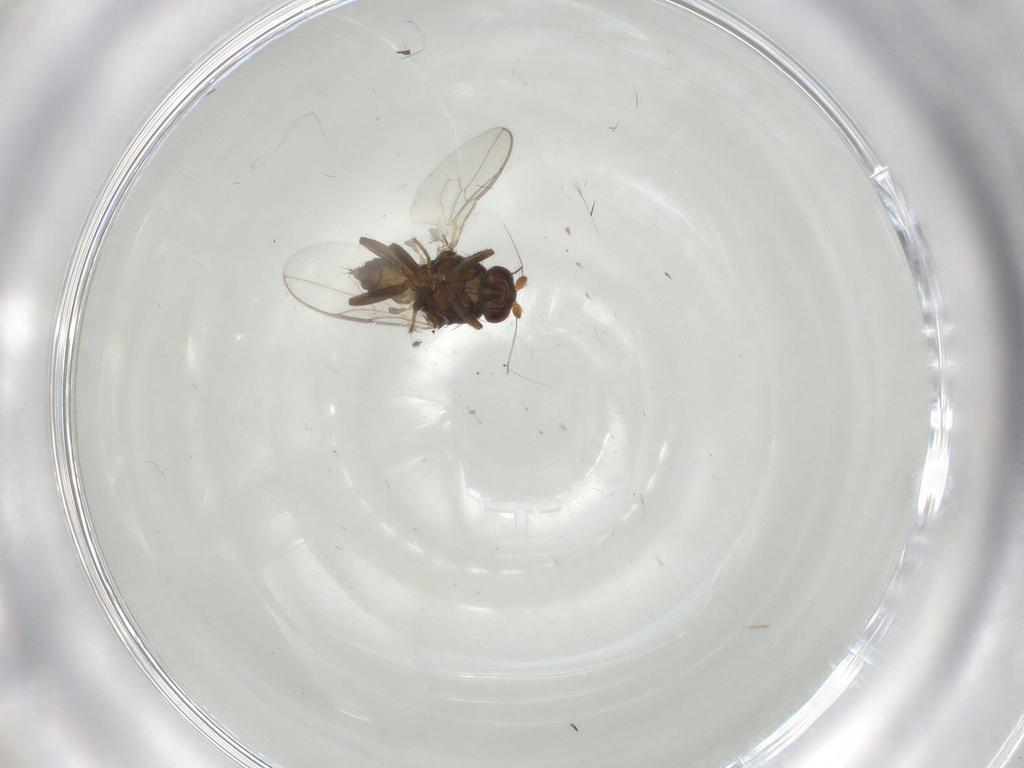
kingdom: Animalia
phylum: Arthropoda
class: Insecta
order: Diptera
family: Sphaeroceridae
